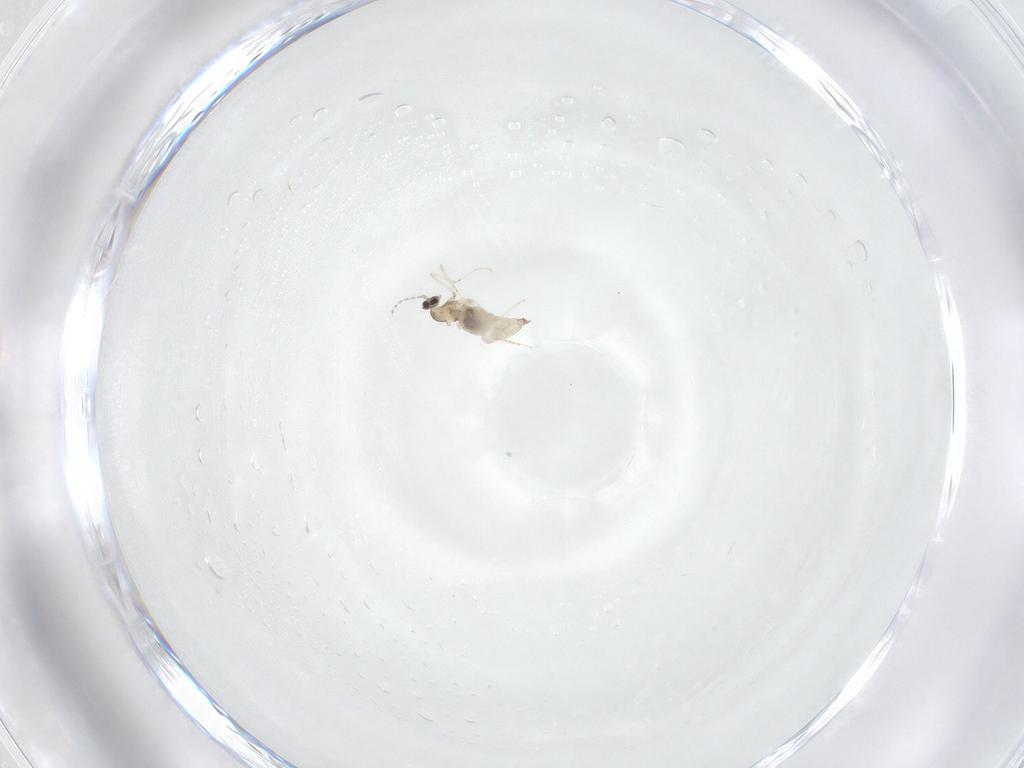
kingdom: Animalia
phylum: Arthropoda
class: Insecta
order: Diptera
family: Cecidomyiidae
